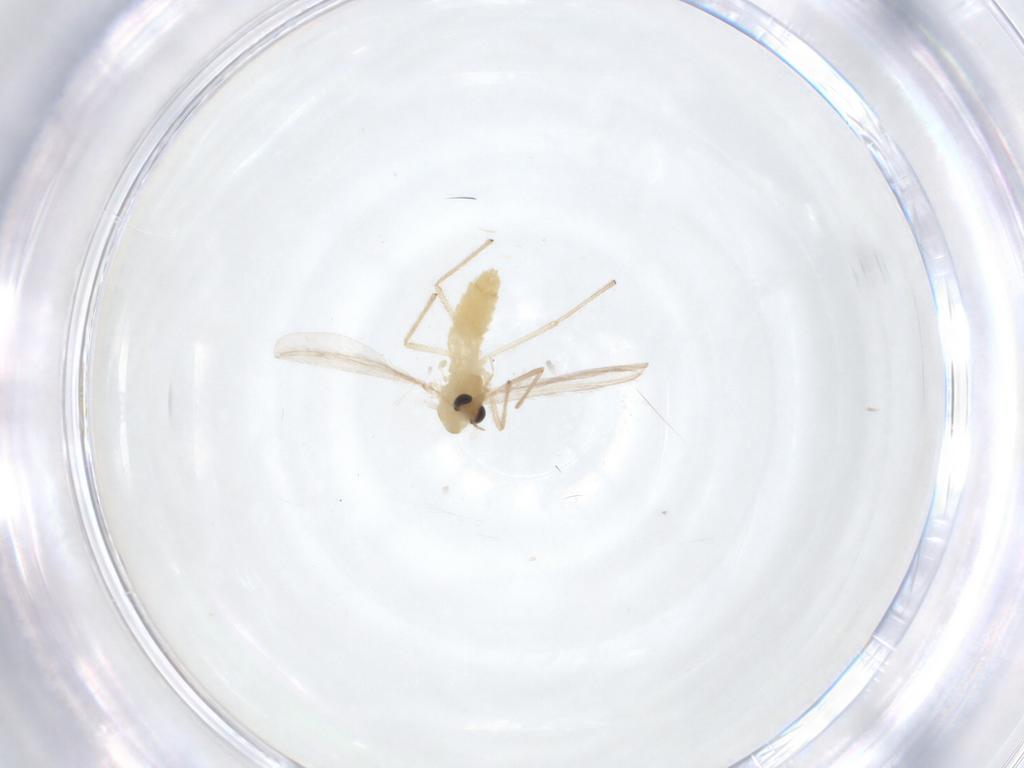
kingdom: Animalia
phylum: Arthropoda
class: Insecta
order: Diptera
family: Chironomidae
